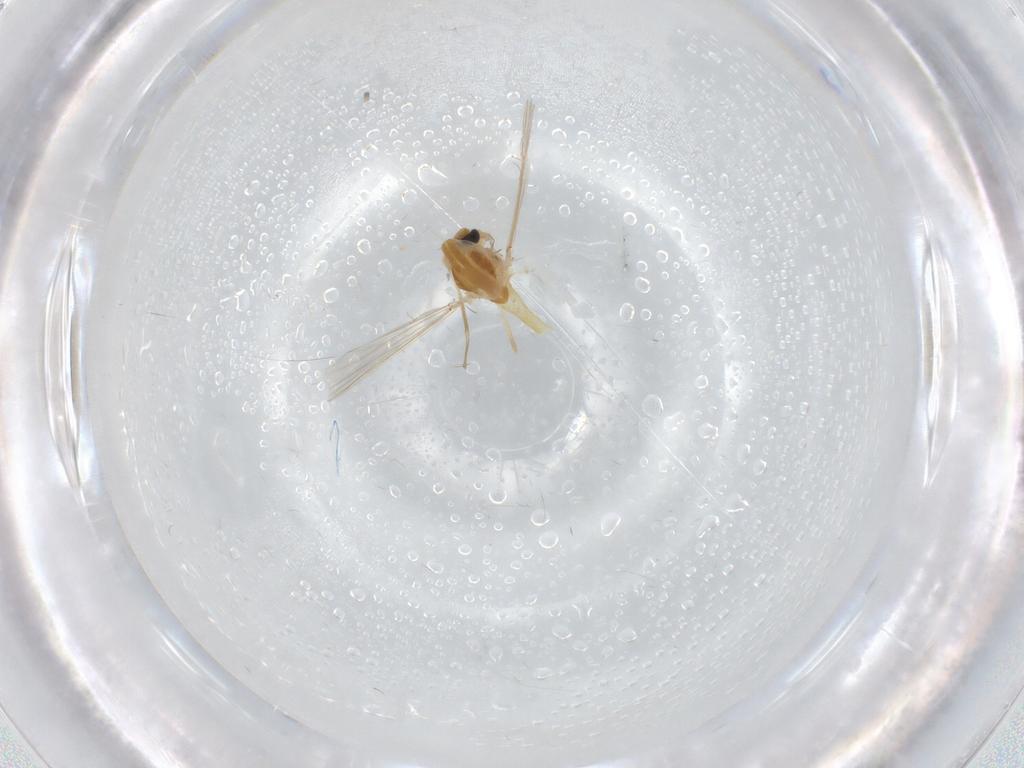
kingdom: Animalia
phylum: Arthropoda
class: Insecta
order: Diptera
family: Chironomidae
